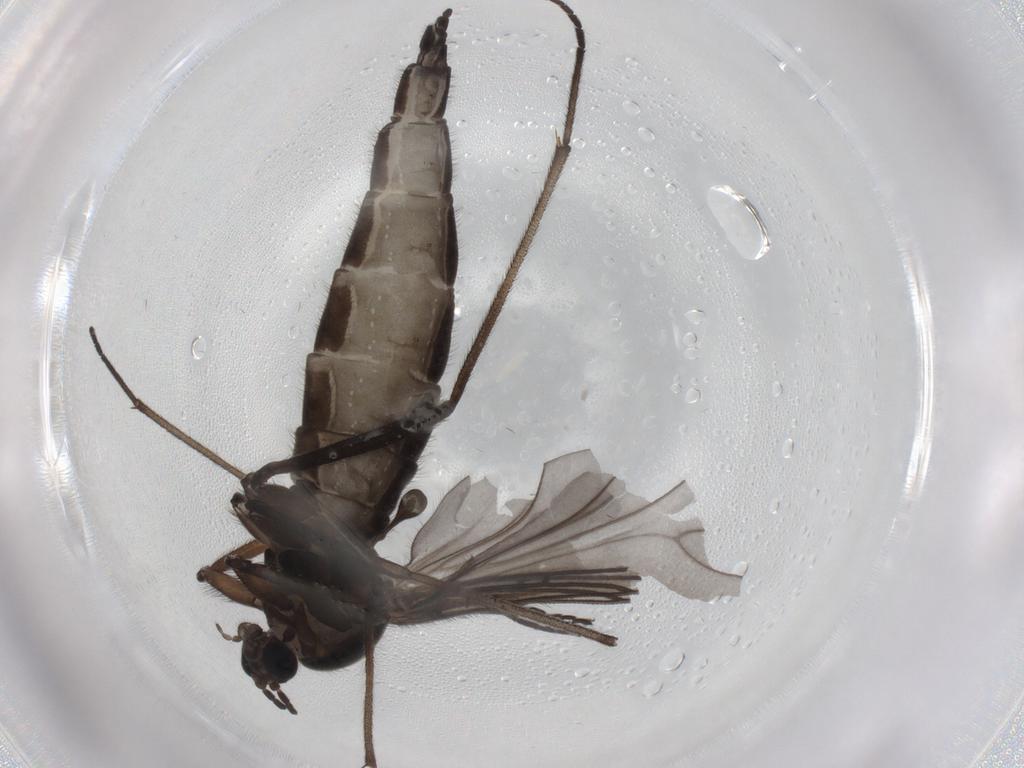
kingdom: Animalia
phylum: Arthropoda
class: Insecta
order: Diptera
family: Sciaridae
